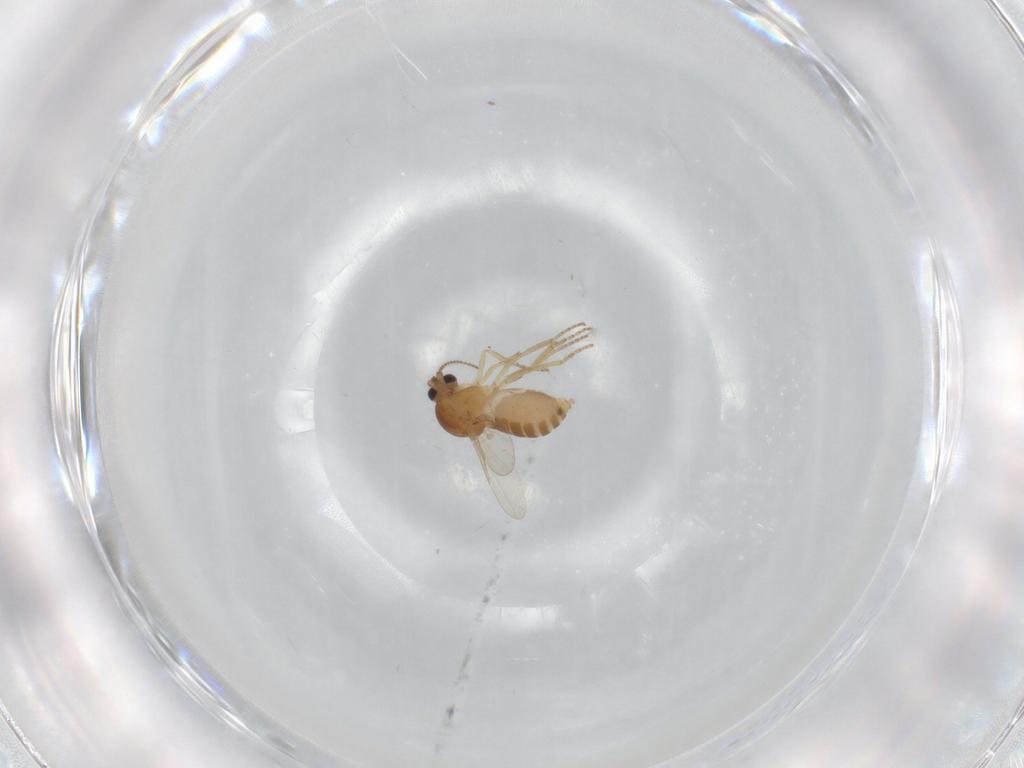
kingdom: Animalia
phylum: Arthropoda
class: Insecta
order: Diptera
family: Ceratopogonidae
